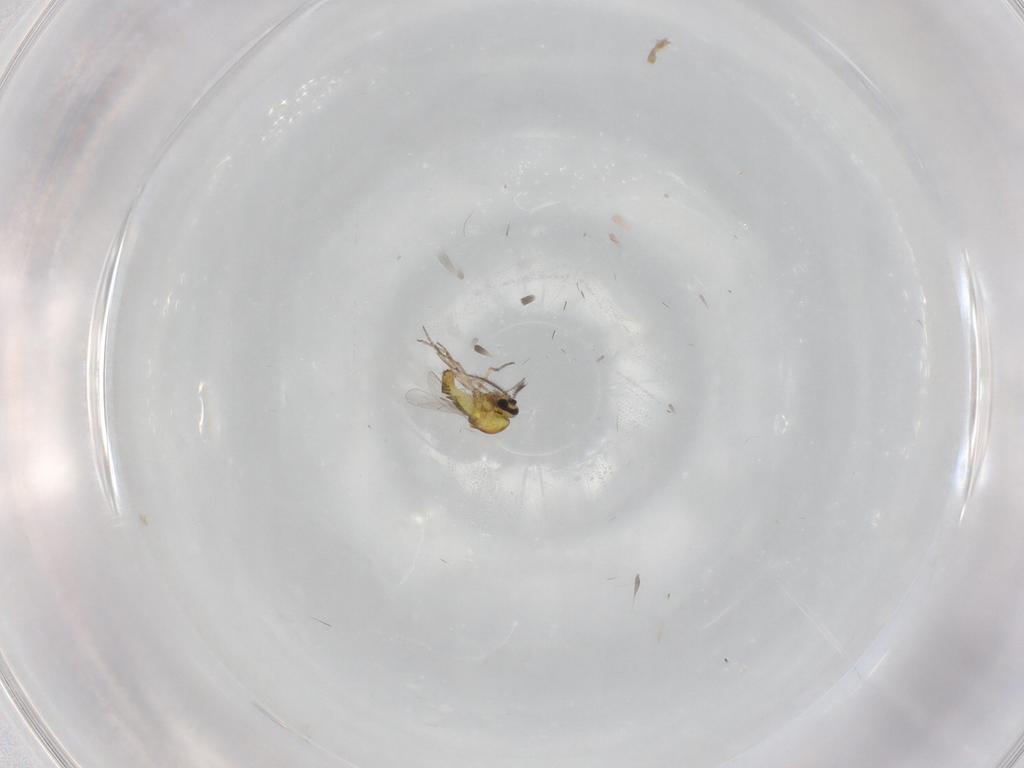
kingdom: Animalia
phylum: Arthropoda
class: Insecta
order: Diptera
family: Ceratopogonidae
